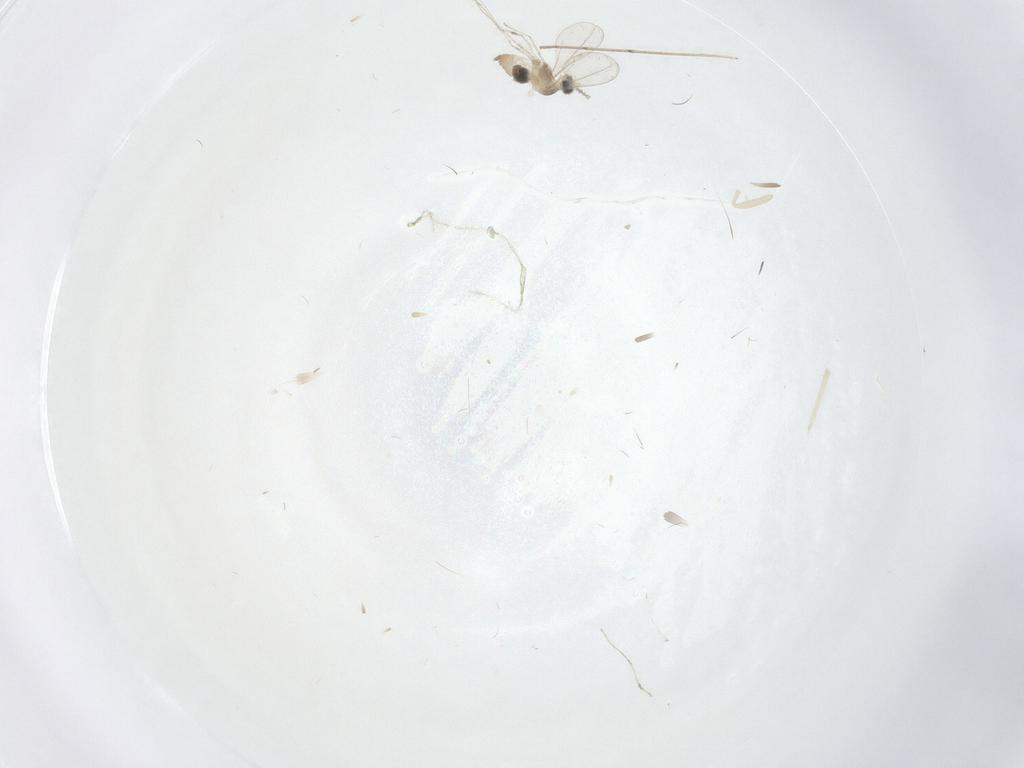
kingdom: Animalia
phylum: Arthropoda
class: Insecta
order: Diptera
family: Cecidomyiidae
